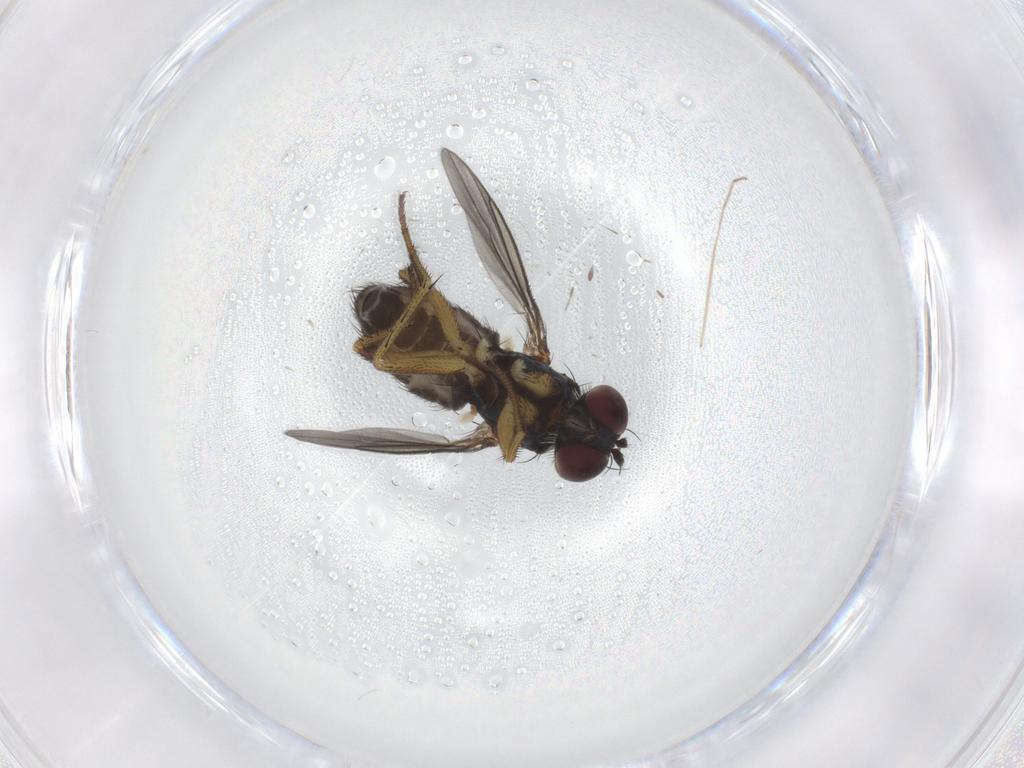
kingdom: Animalia
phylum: Arthropoda
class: Insecta
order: Diptera
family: Dolichopodidae
